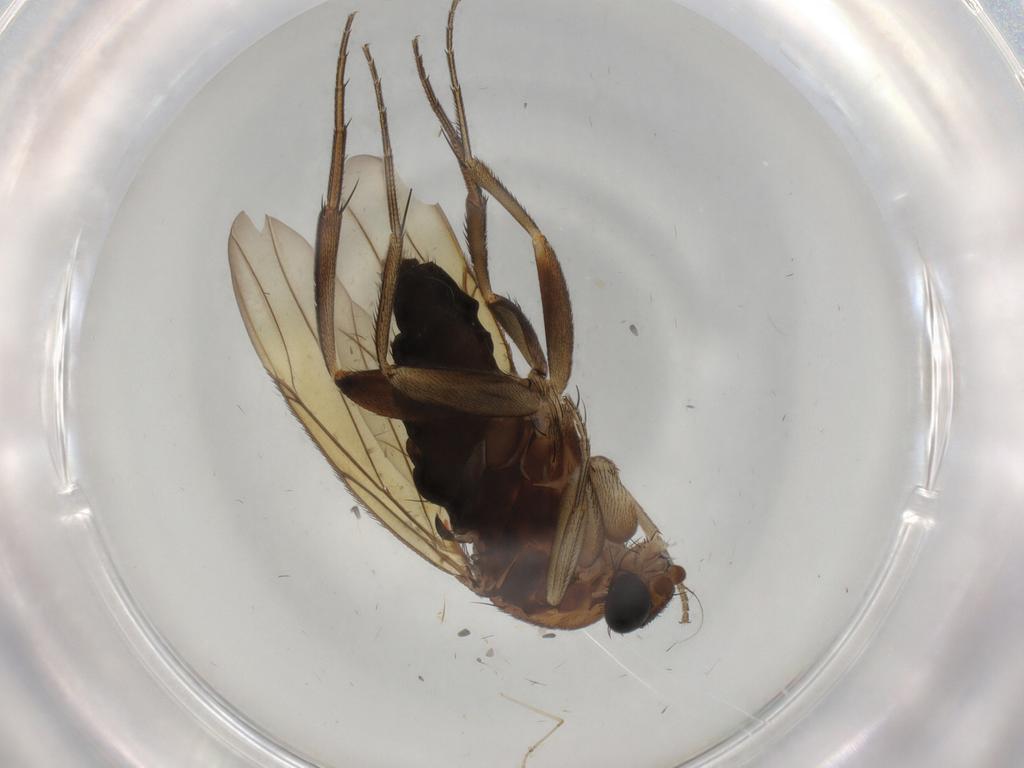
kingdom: Animalia
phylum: Arthropoda
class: Insecta
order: Diptera
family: Phoridae
